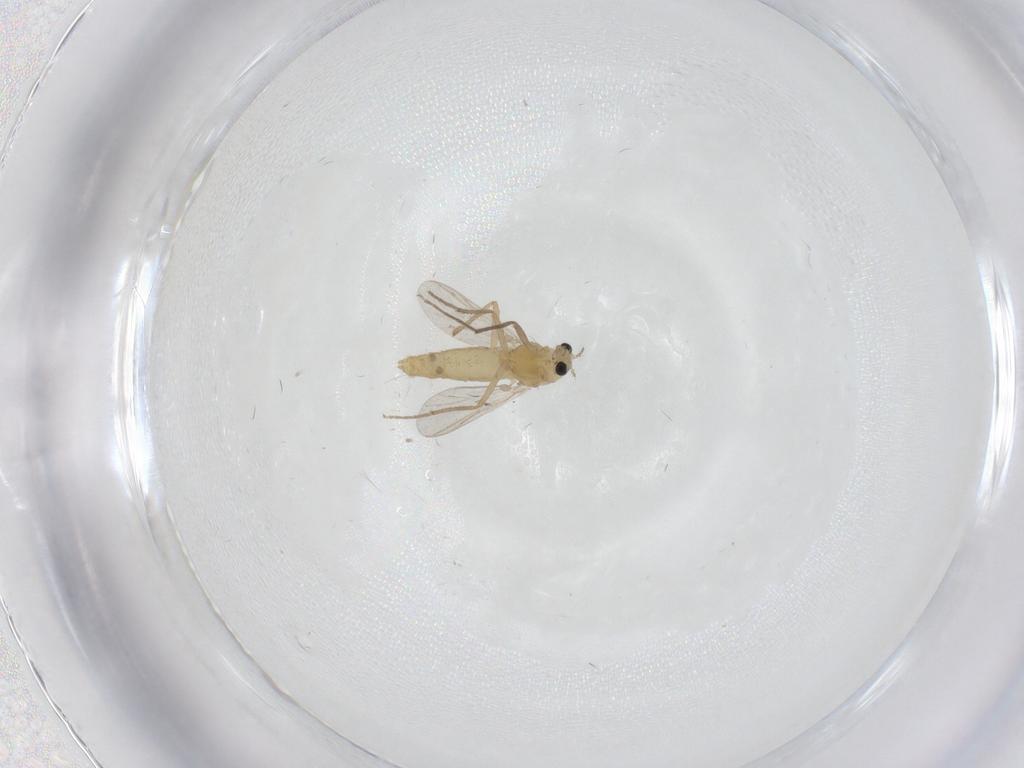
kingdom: Animalia
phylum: Arthropoda
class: Insecta
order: Diptera
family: Chironomidae
